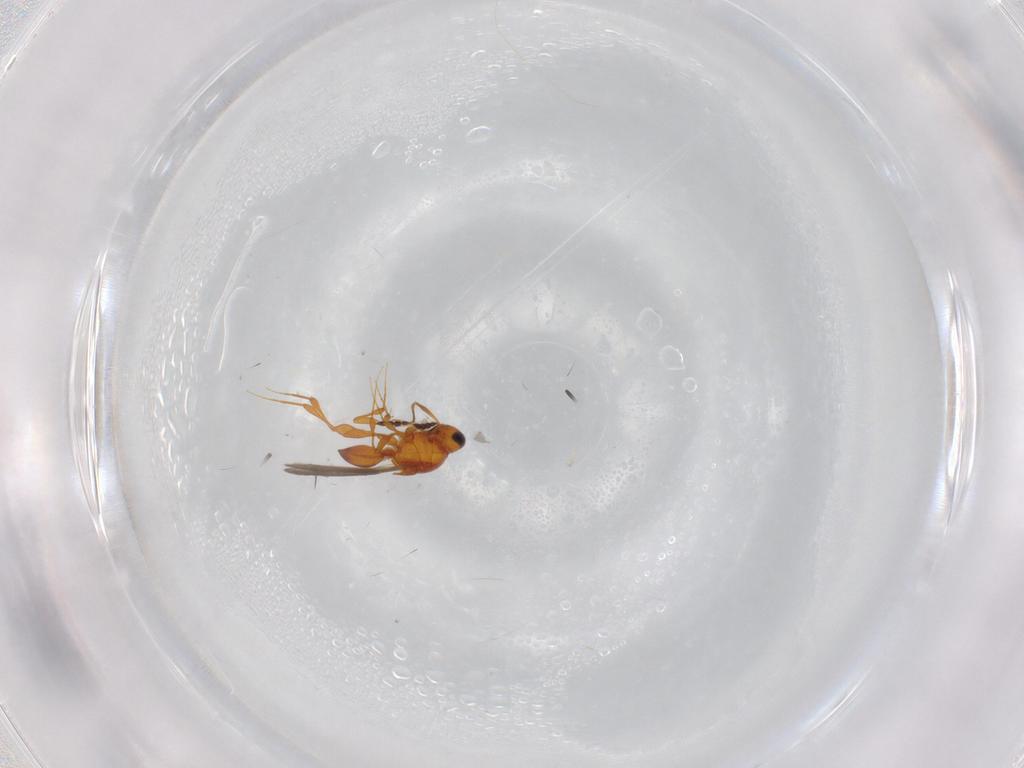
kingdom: Animalia
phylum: Arthropoda
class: Insecta
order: Hymenoptera
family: Platygastridae
